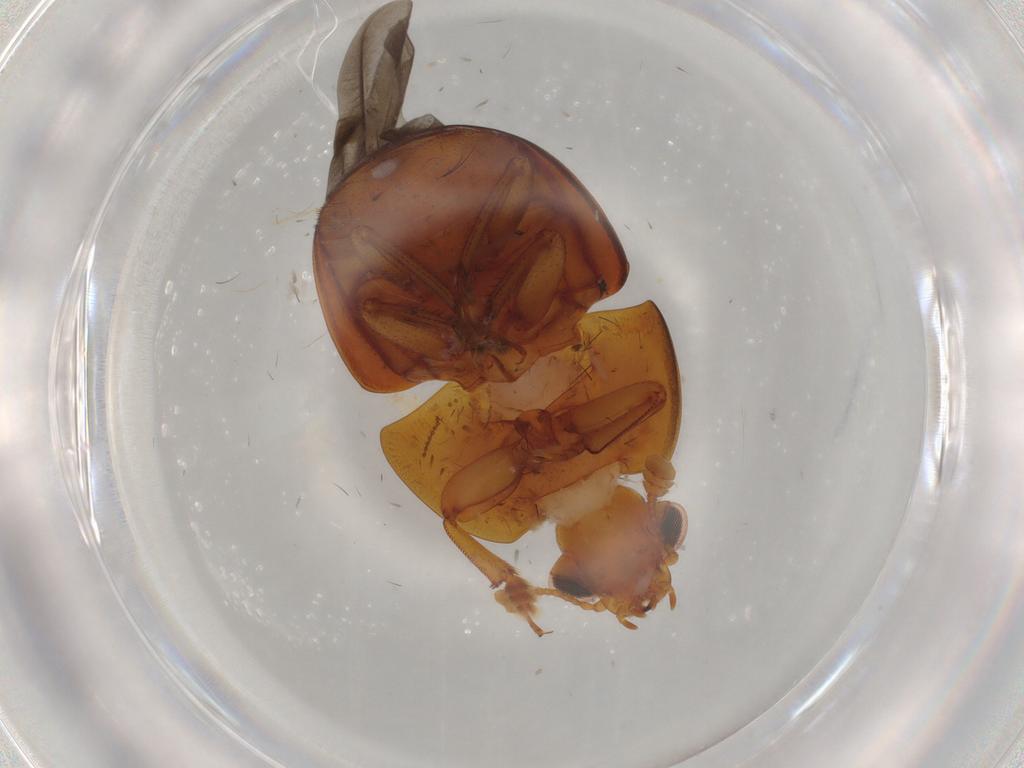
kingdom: Animalia
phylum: Arthropoda
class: Insecta
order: Coleoptera
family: Nitidulidae
